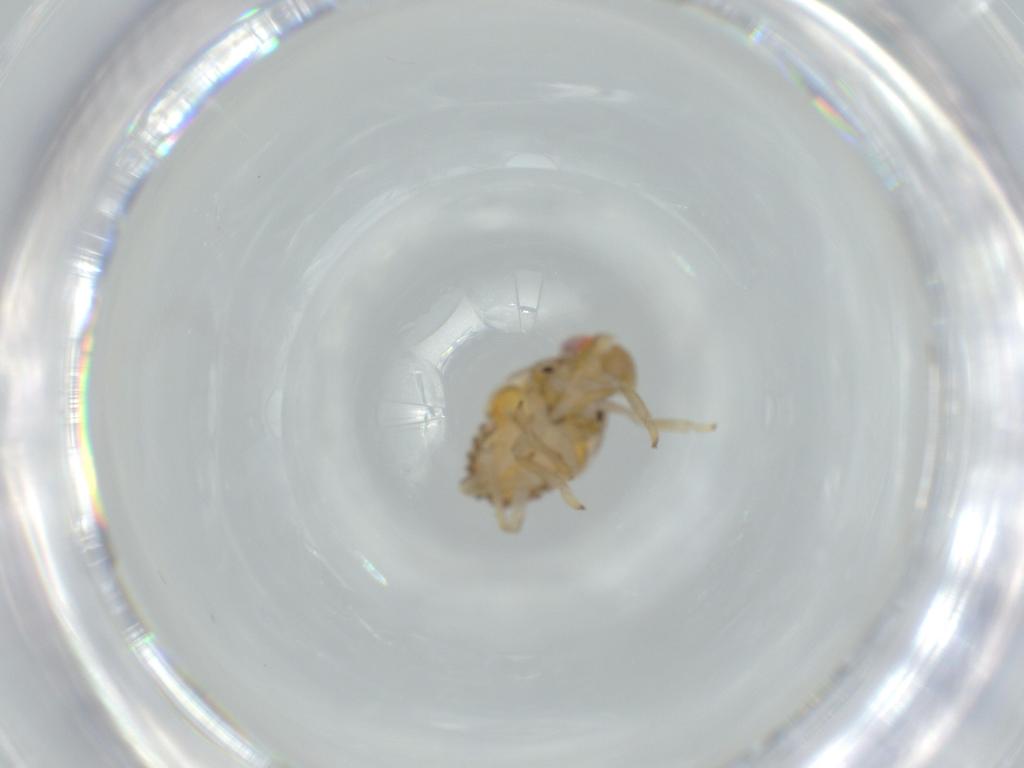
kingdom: Animalia
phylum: Arthropoda
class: Insecta
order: Hemiptera
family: Issidae
